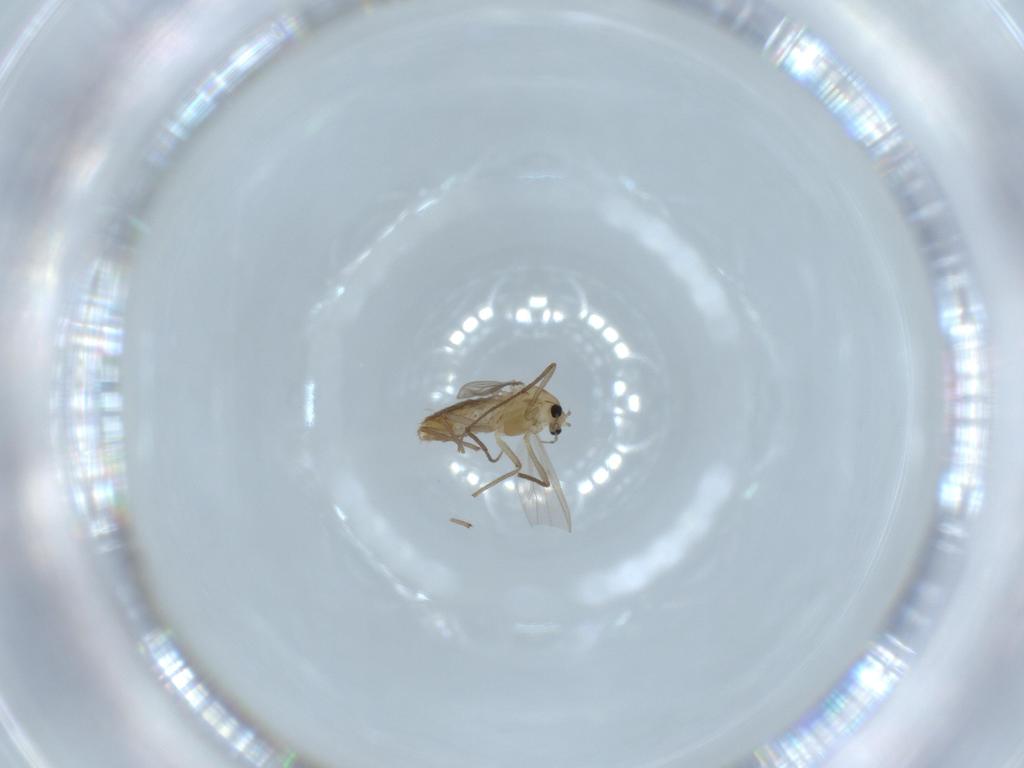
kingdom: Animalia
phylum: Arthropoda
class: Insecta
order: Diptera
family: Chironomidae
